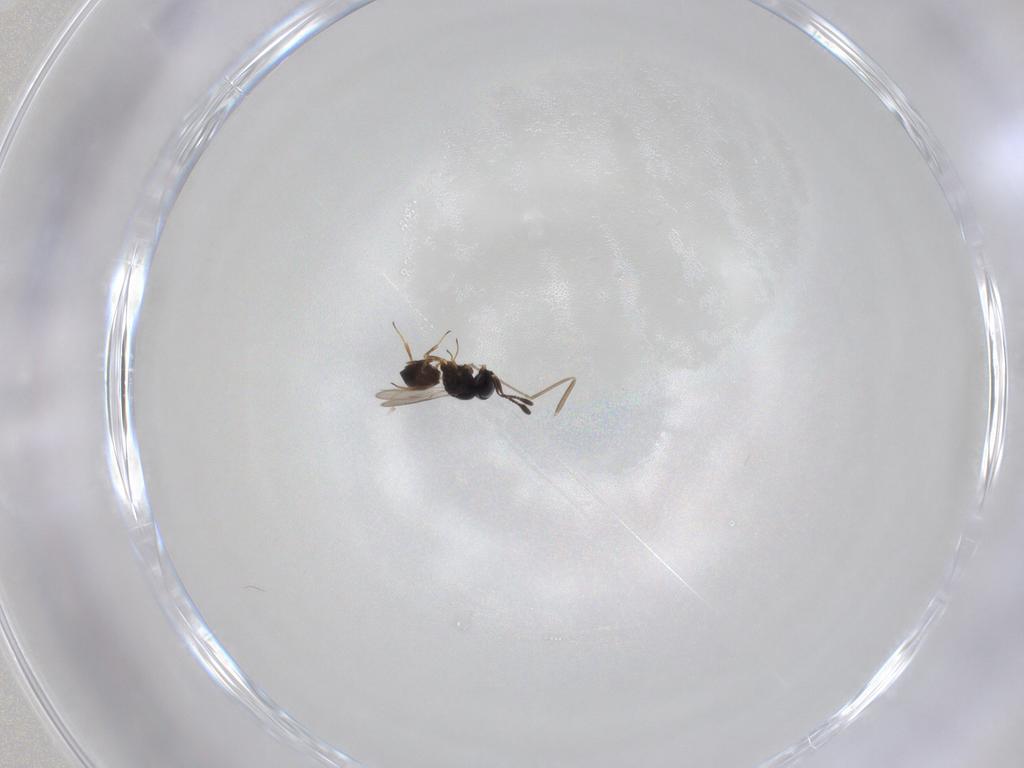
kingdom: Animalia
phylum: Arthropoda
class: Insecta
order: Hymenoptera
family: Scelionidae
